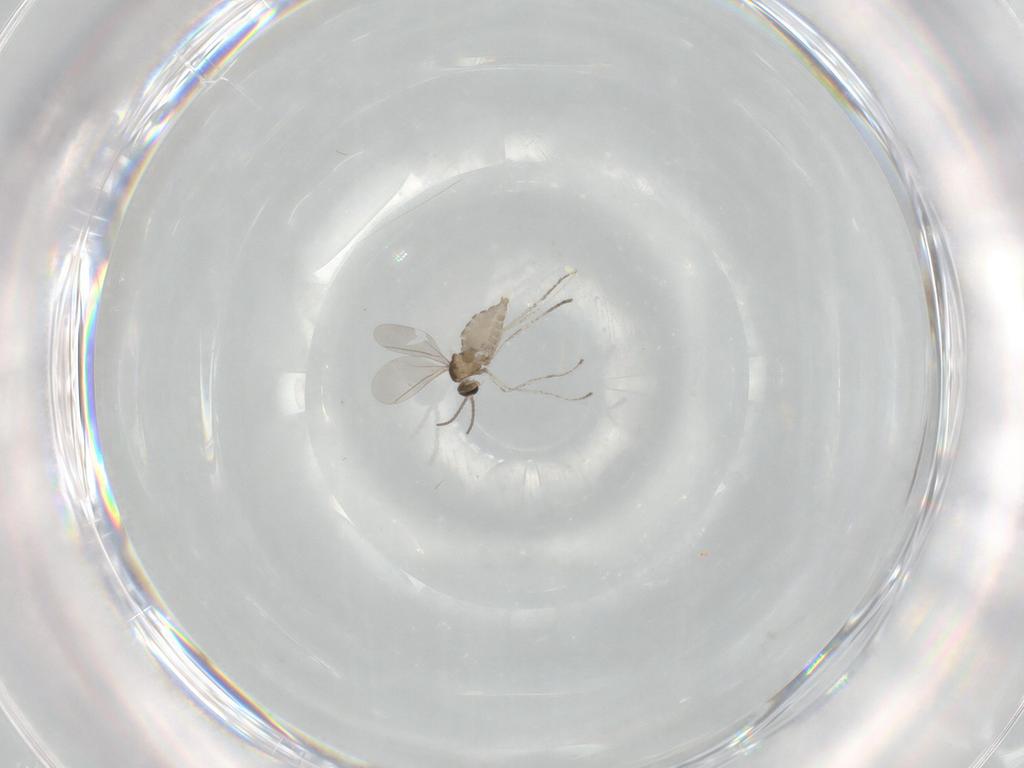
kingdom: Animalia
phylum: Arthropoda
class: Insecta
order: Diptera
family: Cecidomyiidae
